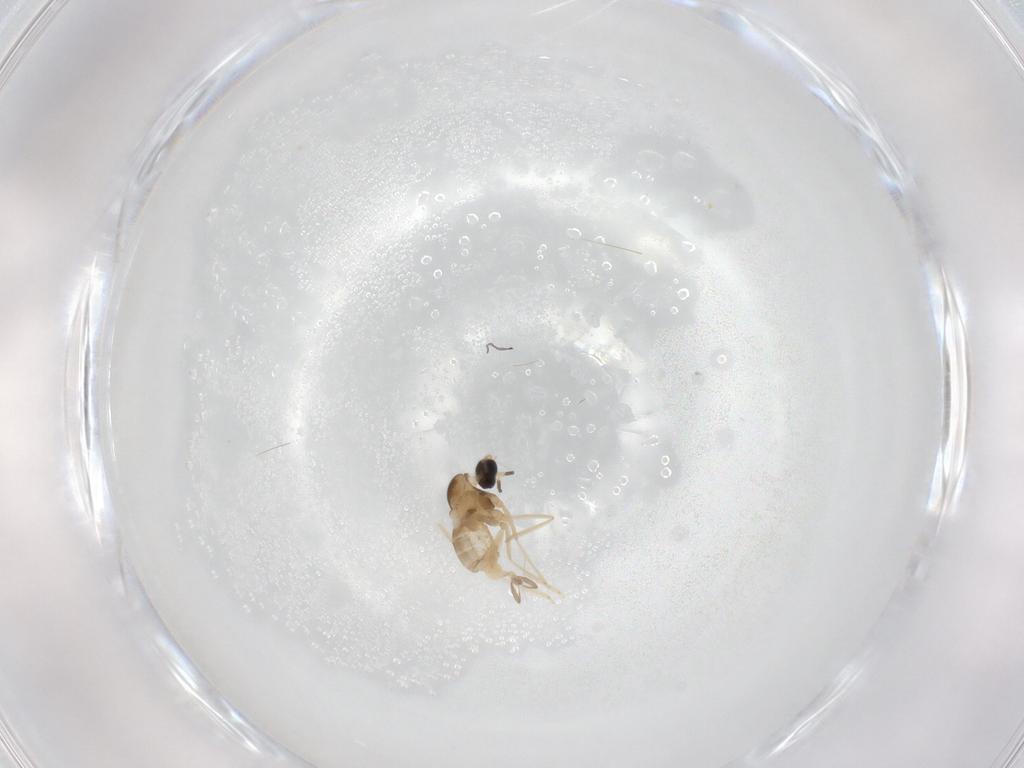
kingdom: Animalia
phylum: Arthropoda
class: Insecta
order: Diptera
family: Cecidomyiidae
